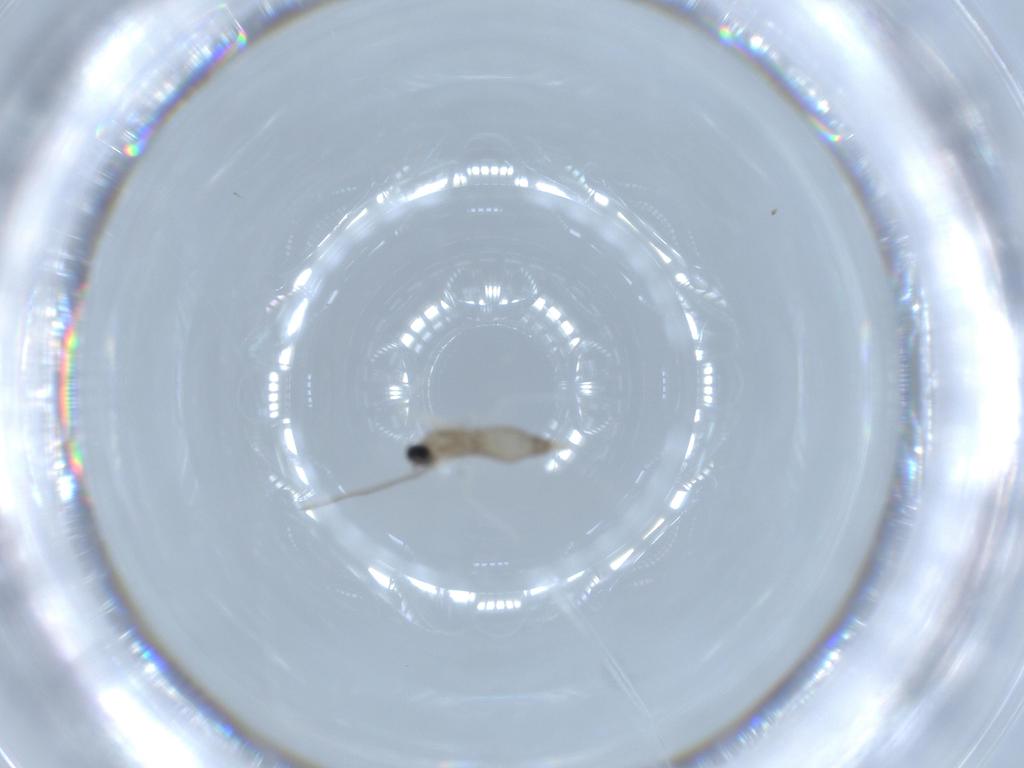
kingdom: Animalia
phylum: Arthropoda
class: Insecta
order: Diptera
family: Cecidomyiidae
